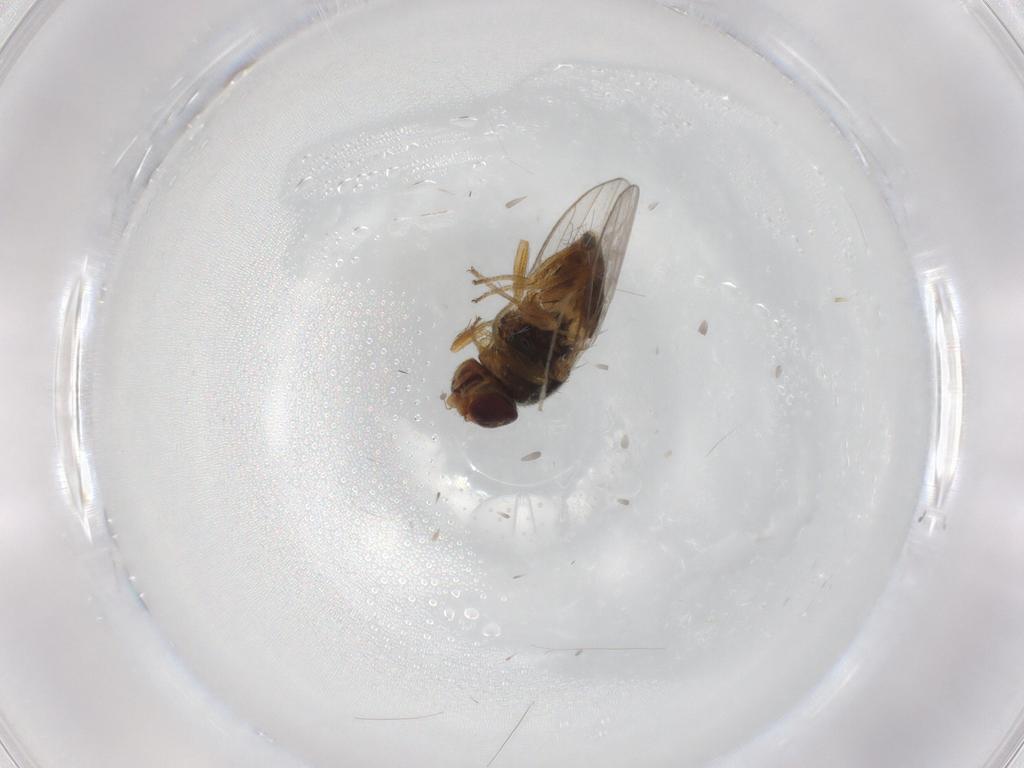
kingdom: Animalia
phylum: Arthropoda
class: Insecta
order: Diptera
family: Chironomidae
